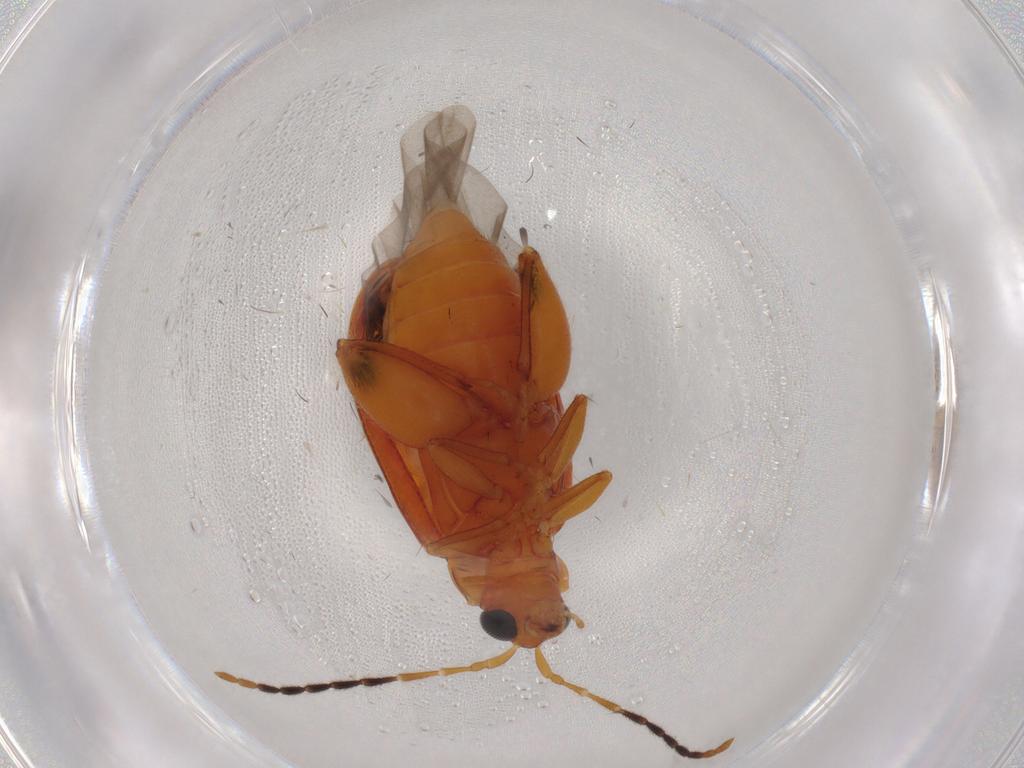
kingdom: Animalia
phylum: Arthropoda
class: Insecta
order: Coleoptera
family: Chrysomelidae
